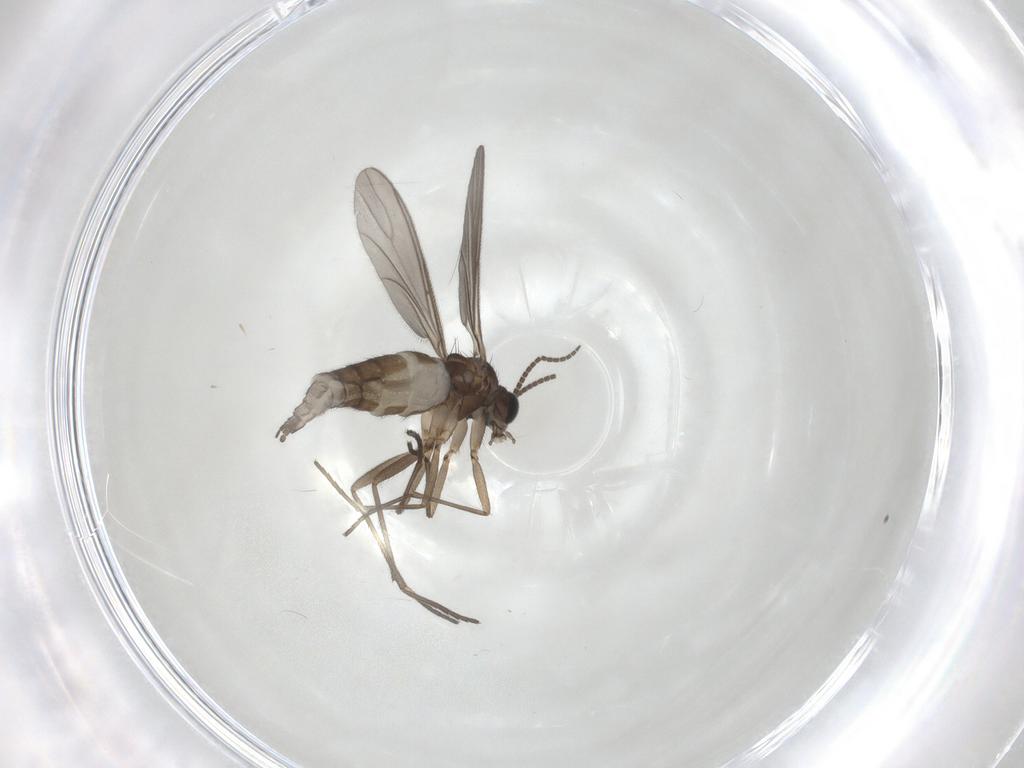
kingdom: Animalia
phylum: Arthropoda
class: Insecta
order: Diptera
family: Sciaridae
